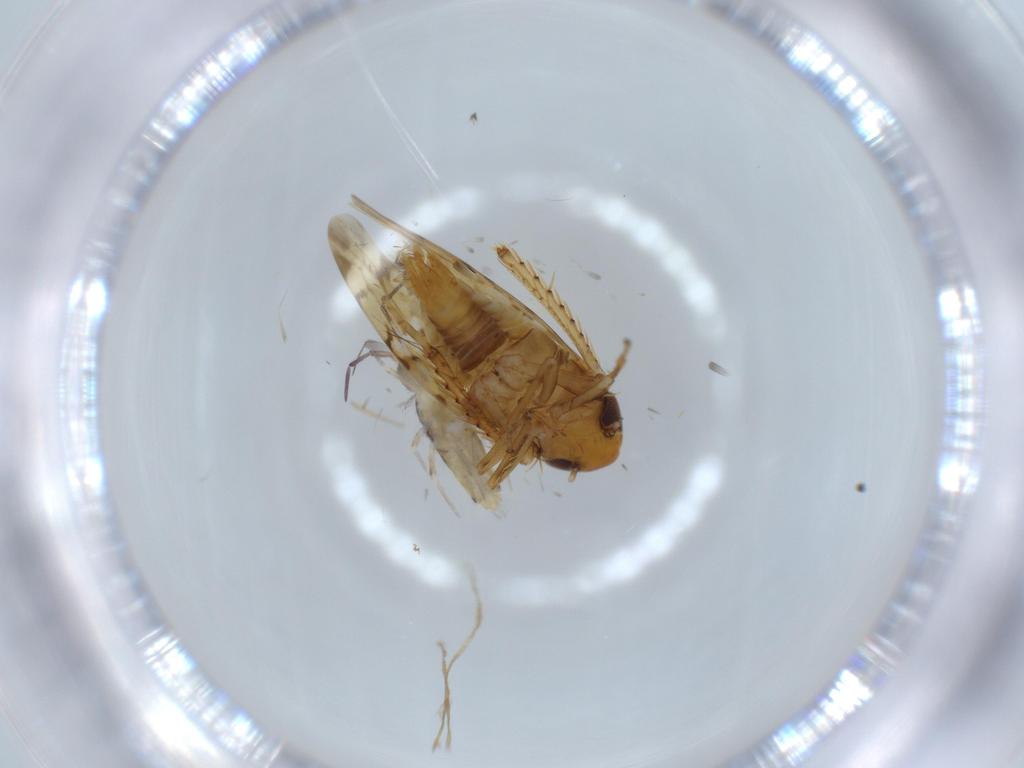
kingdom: Animalia
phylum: Arthropoda
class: Insecta
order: Hemiptera
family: Cicadellidae
